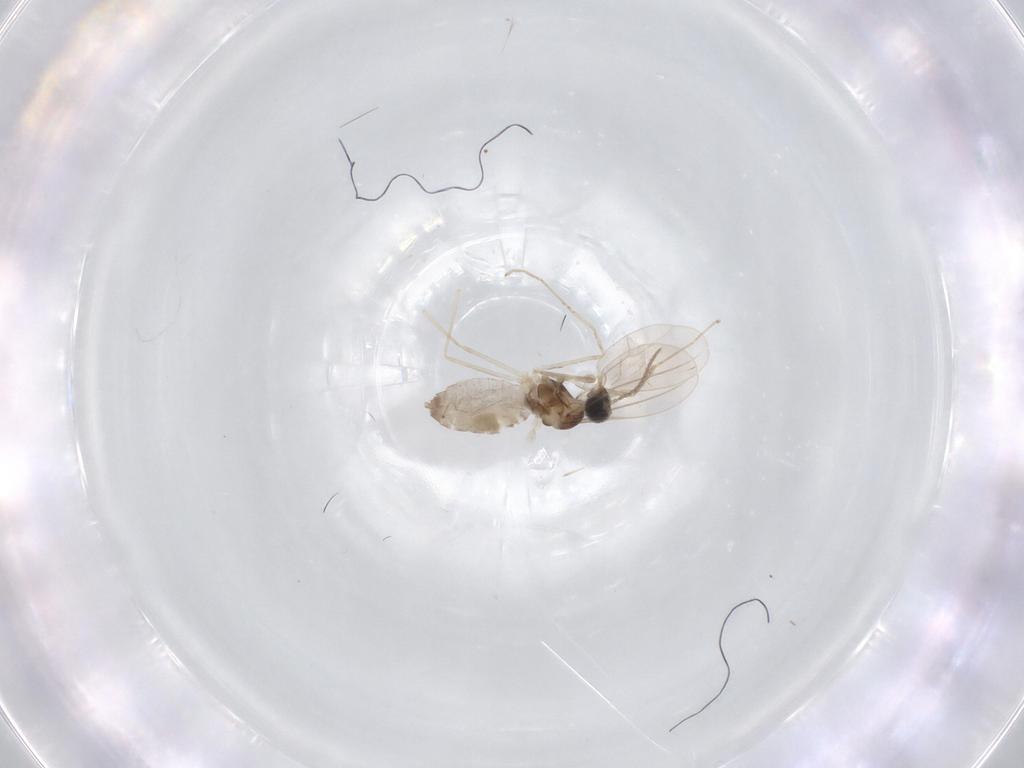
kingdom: Animalia
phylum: Arthropoda
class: Insecta
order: Diptera
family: Cecidomyiidae
